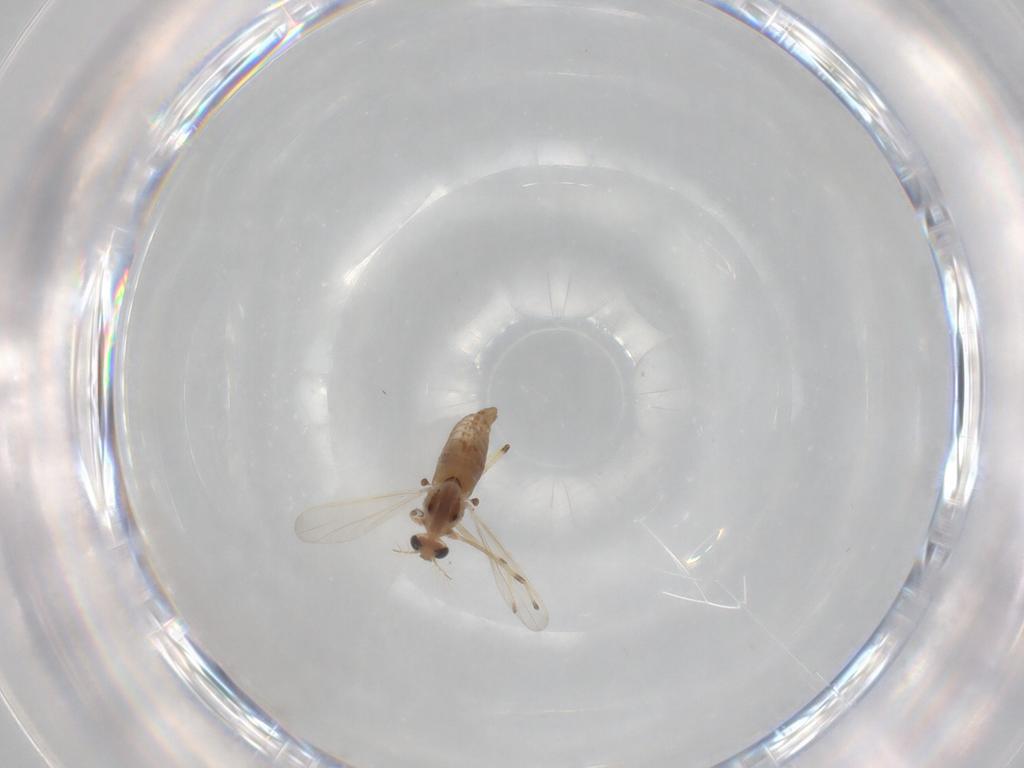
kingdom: Animalia
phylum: Arthropoda
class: Insecta
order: Diptera
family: Chironomidae
